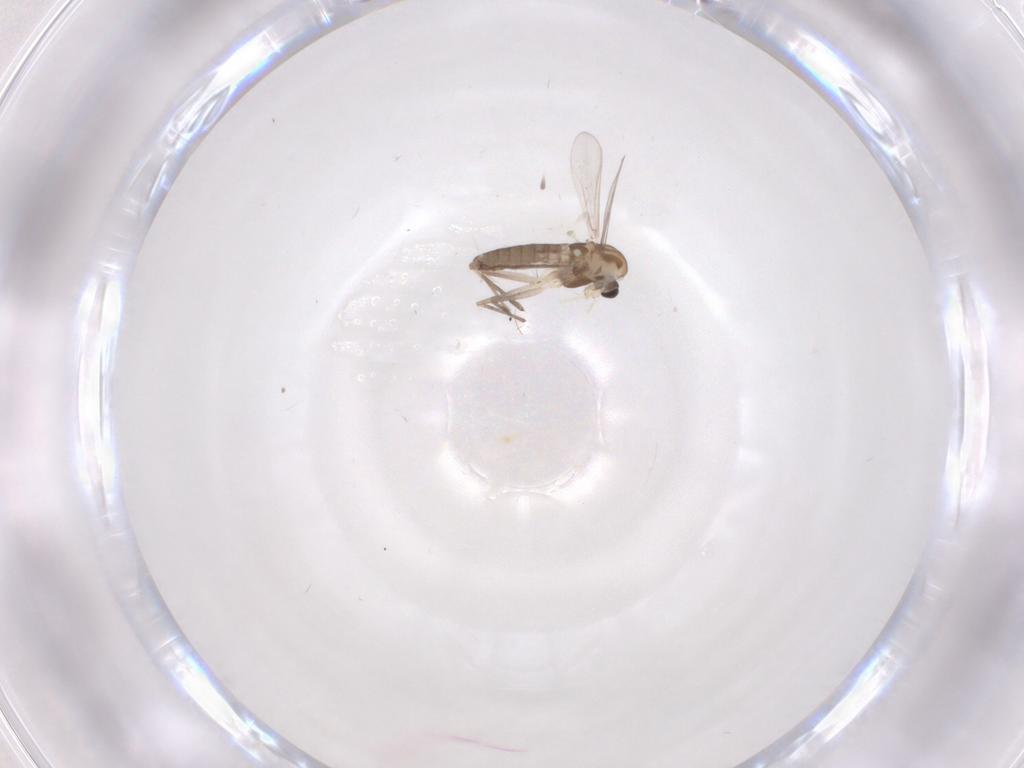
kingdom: Animalia
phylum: Arthropoda
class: Insecta
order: Diptera
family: Chironomidae
